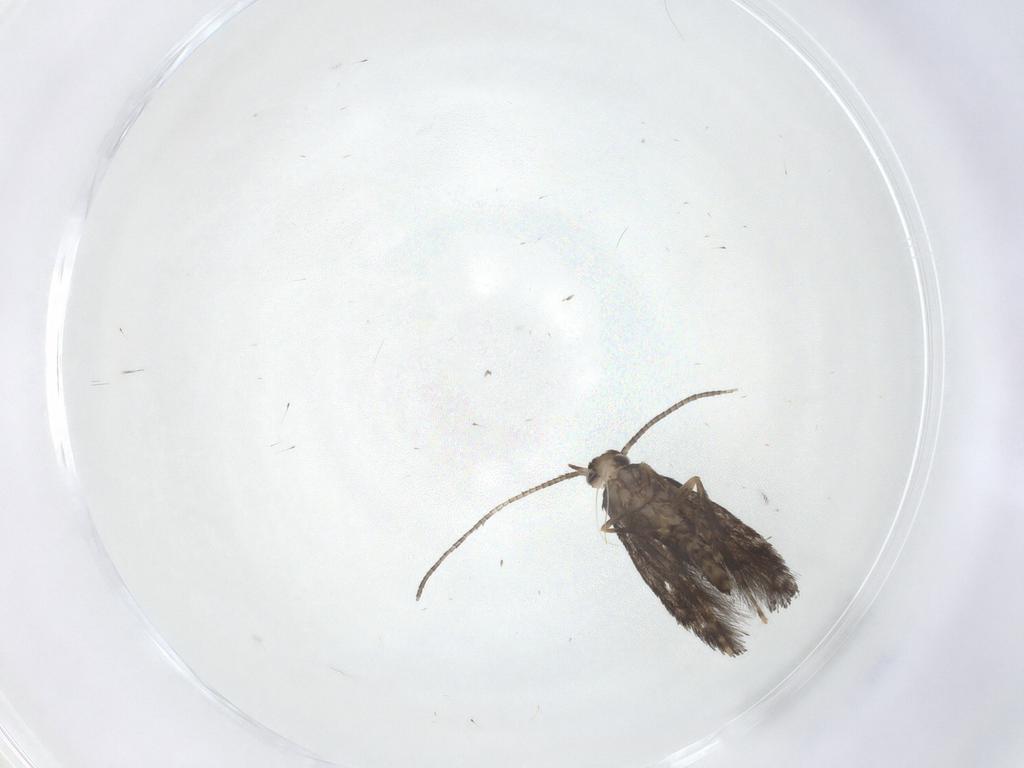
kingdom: Animalia
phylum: Arthropoda
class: Insecta
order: Lepidoptera
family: Gracillariidae
